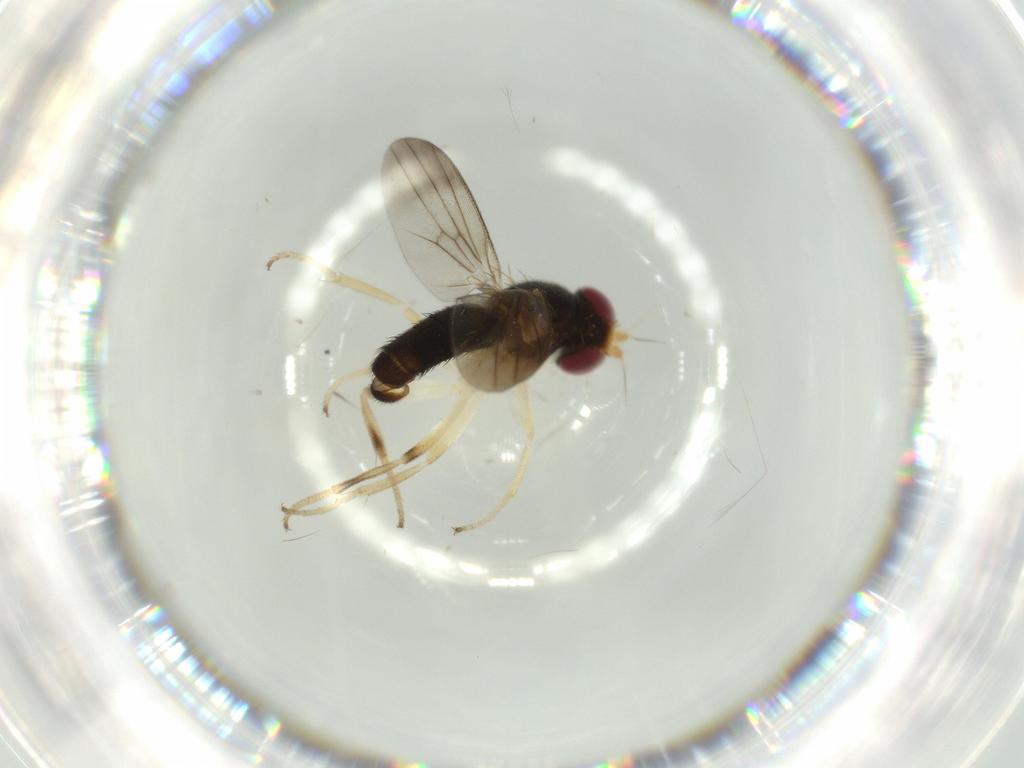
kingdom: Animalia
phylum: Arthropoda
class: Insecta
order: Diptera
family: Clusiidae
